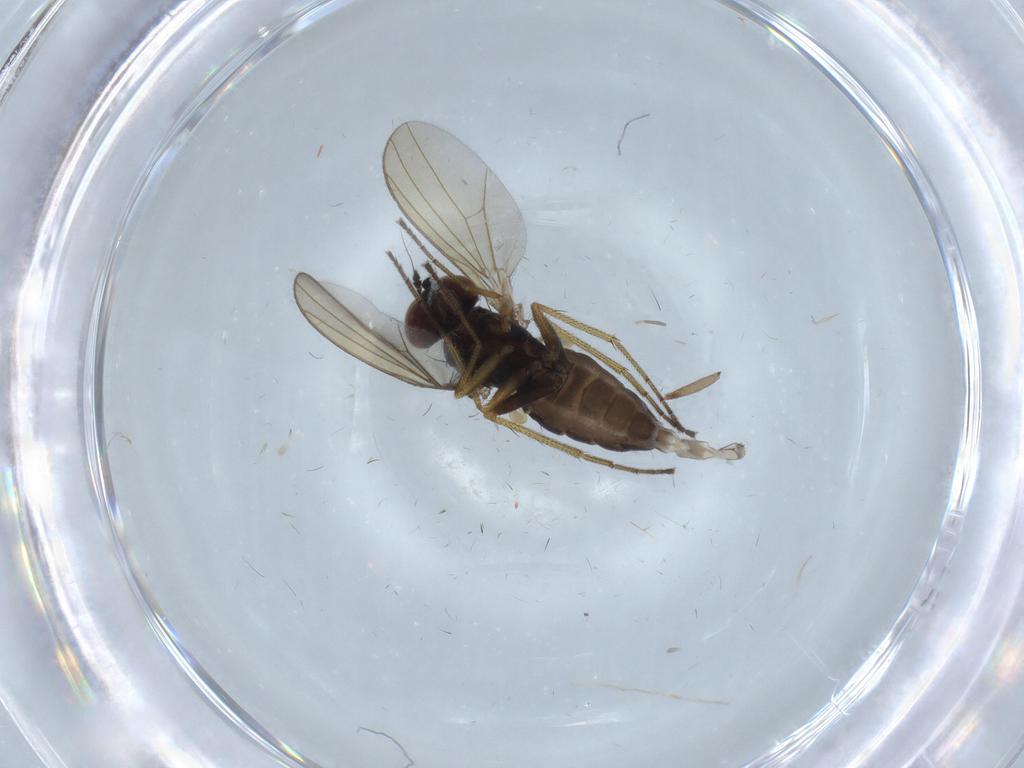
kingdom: Animalia
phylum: Arthropoda
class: Insecta
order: Diptera
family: Dolichopodidae
